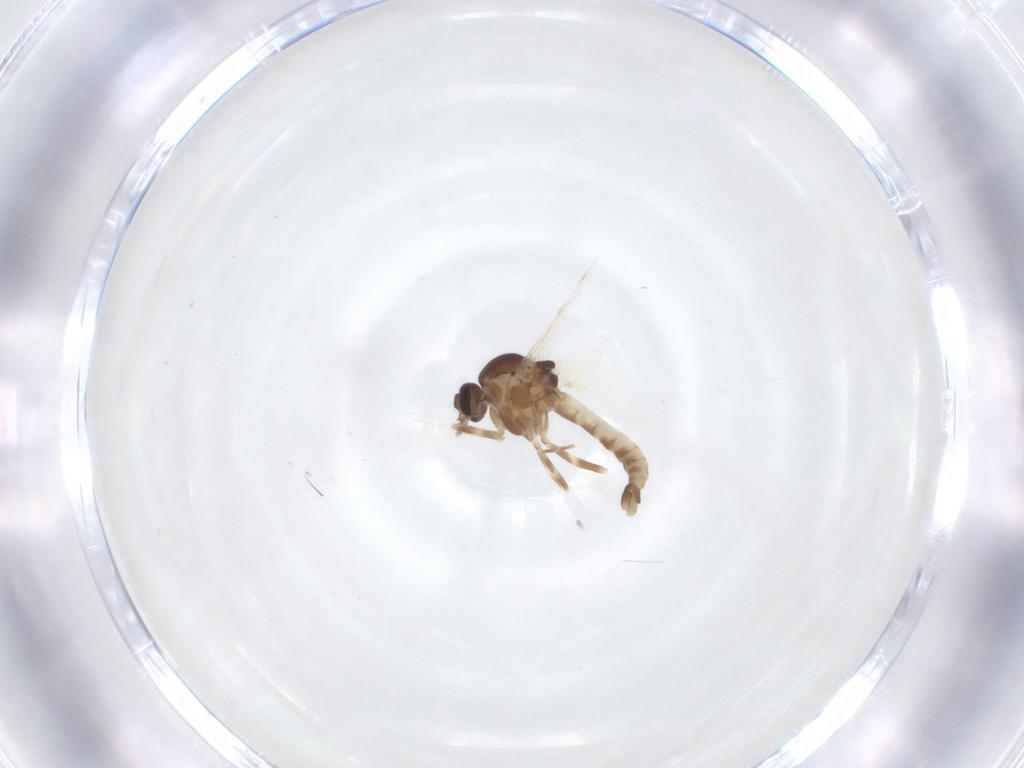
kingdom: Animalia
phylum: Arthropoda
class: Insecta
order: Diptera
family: Ceratopogonidae
